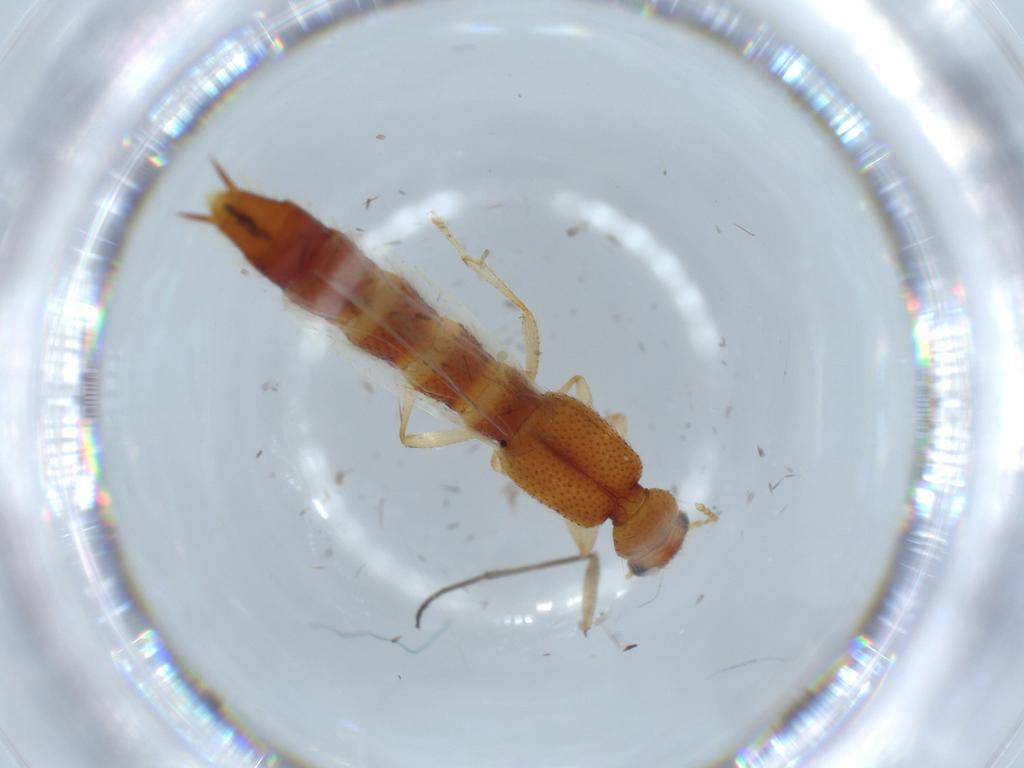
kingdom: Animalia
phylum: Arthropoda
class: Insecta
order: Coleoptera
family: Staphylinidae
